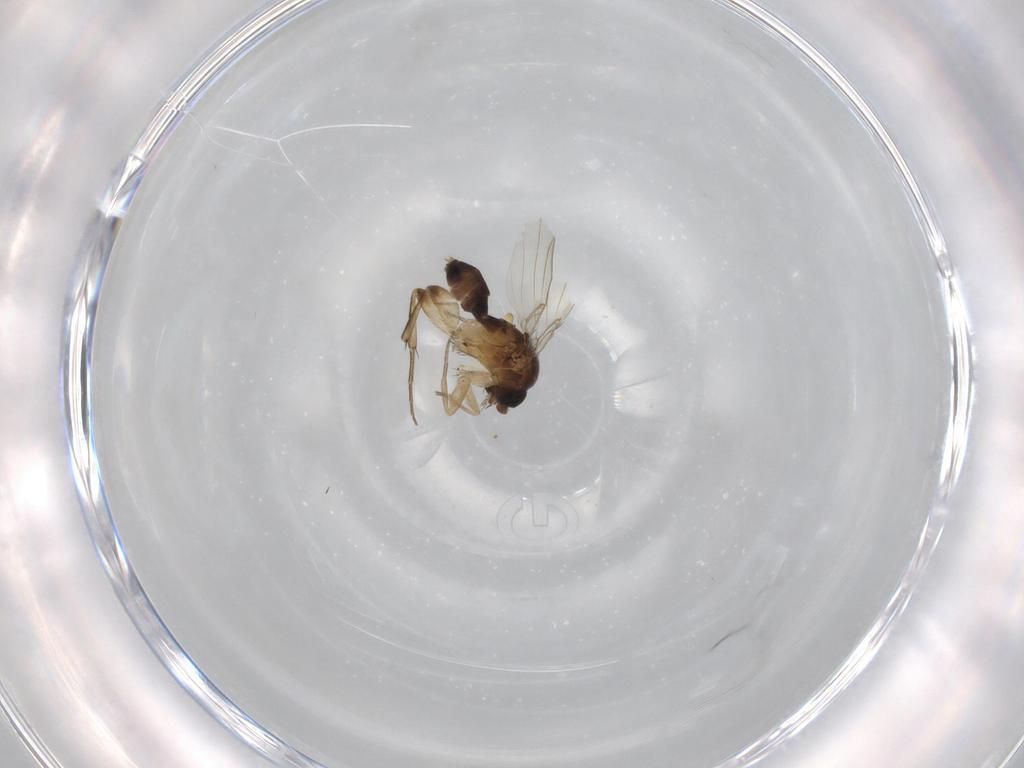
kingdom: Animalia
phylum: Arthropoda
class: Insecta
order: Diptera
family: Phoridae
